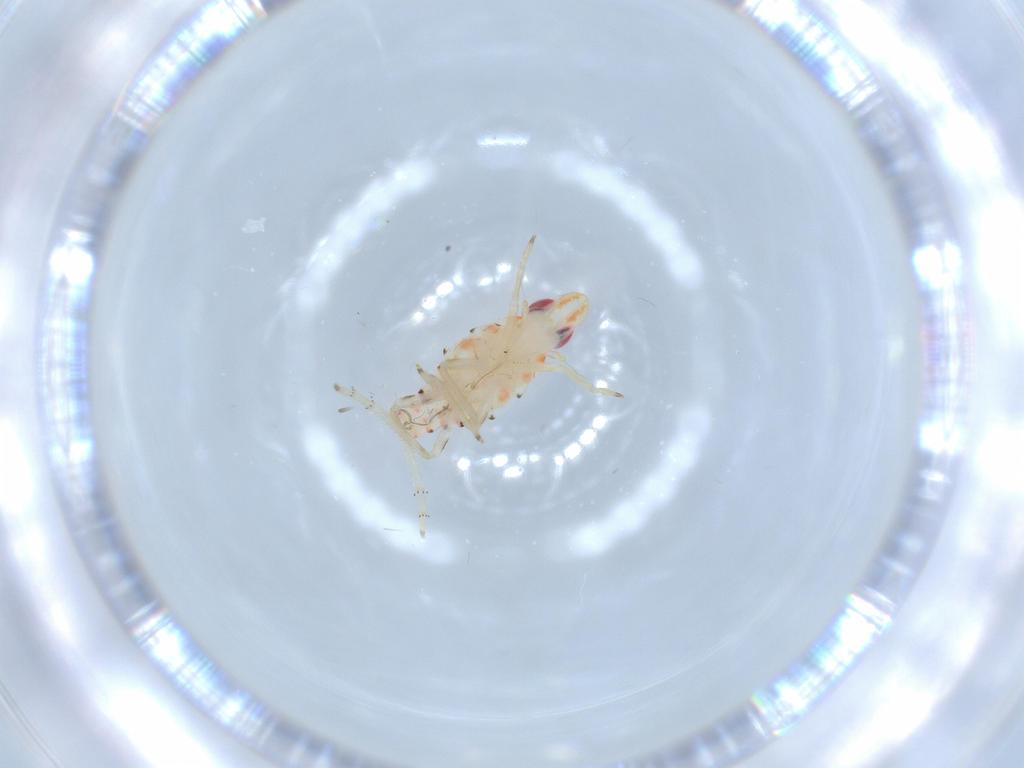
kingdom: Animalia
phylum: Arthropoda
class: Insecta
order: Hemiptera
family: Tropiduchidae
